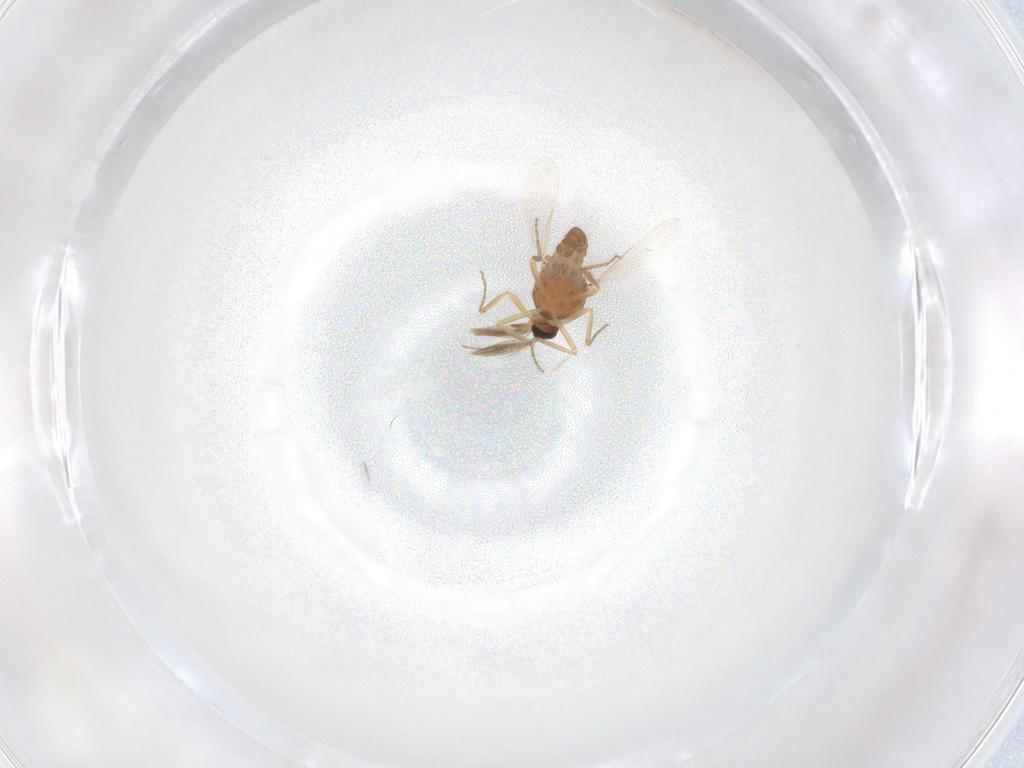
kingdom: Animalia
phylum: Arthropoda
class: Insecta
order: Diptera
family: Ceratopogonidae
